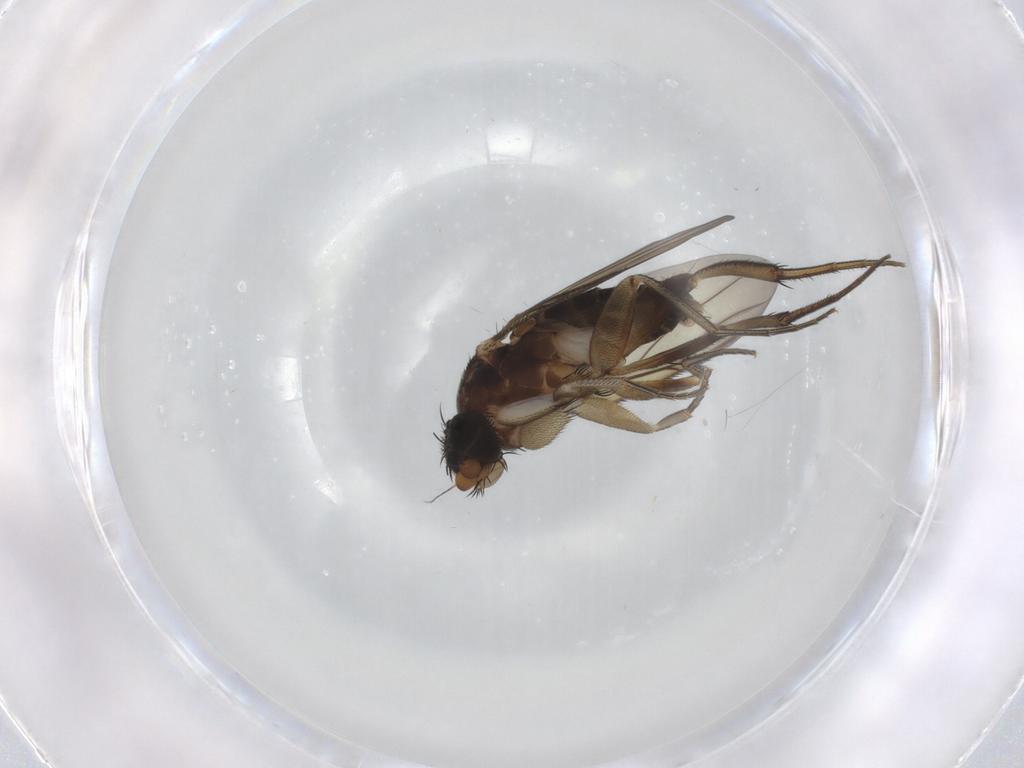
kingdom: Animalia
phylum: Arthropoda
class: Insecta
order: Diptera
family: Phoridae
